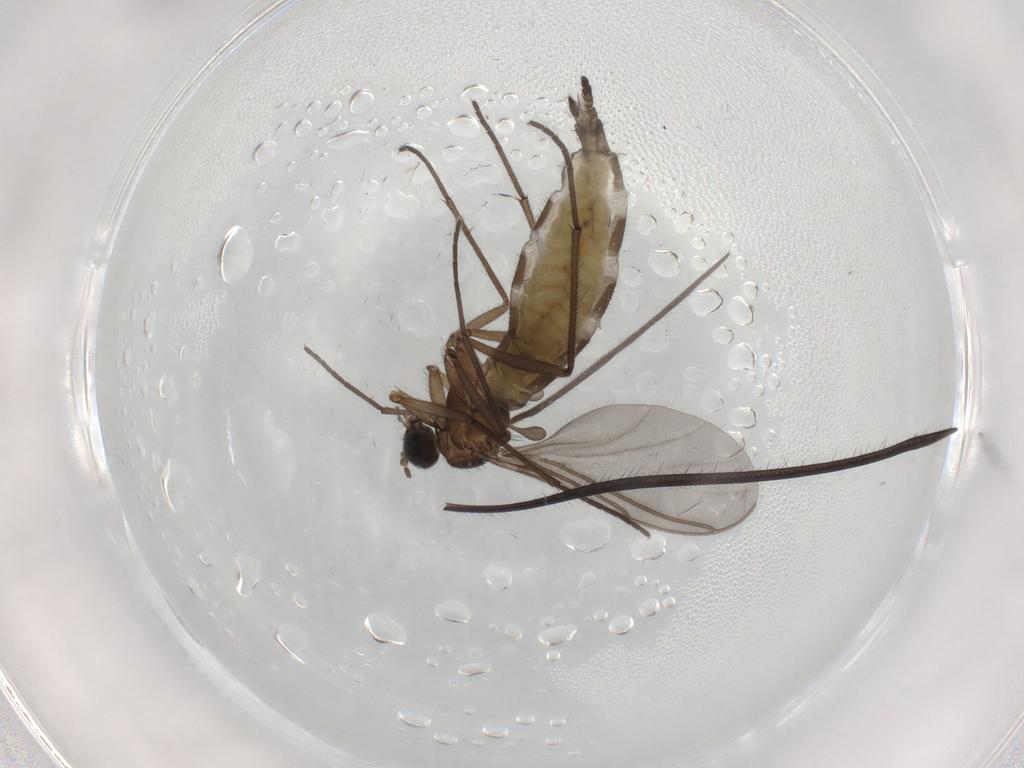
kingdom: Animalia
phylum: Arthropoda
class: Insecta
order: Diptera
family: Sciaridae
